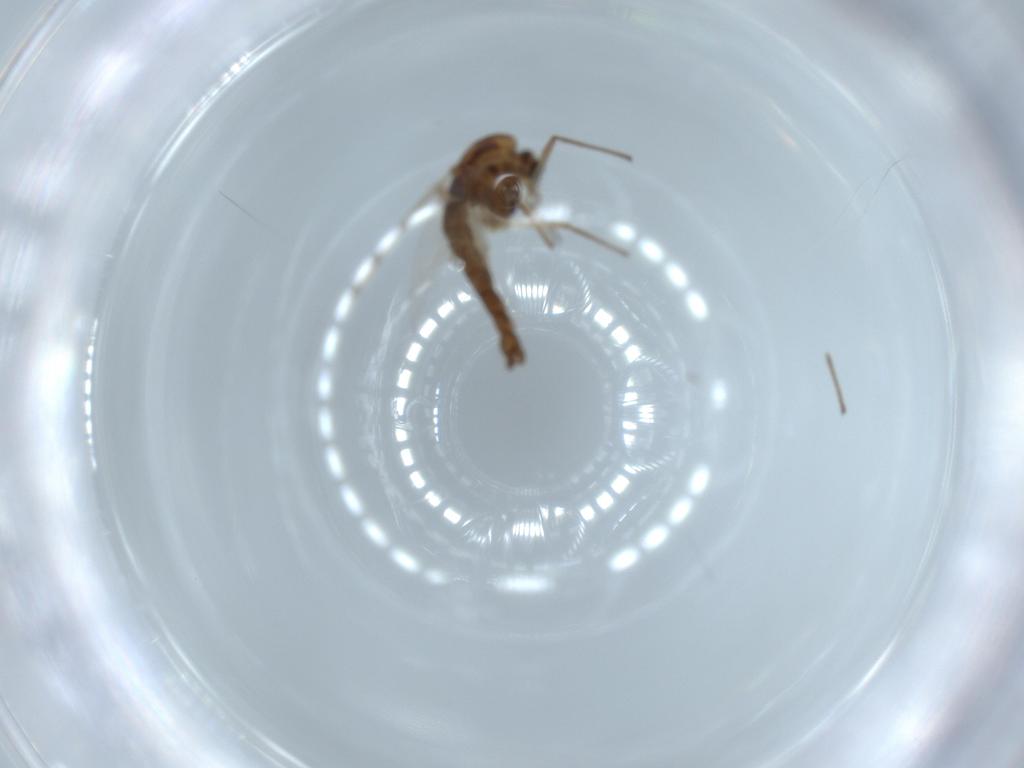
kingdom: Animalia
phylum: Arthropoda
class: Insecta
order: Diptera
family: Chironomidae
